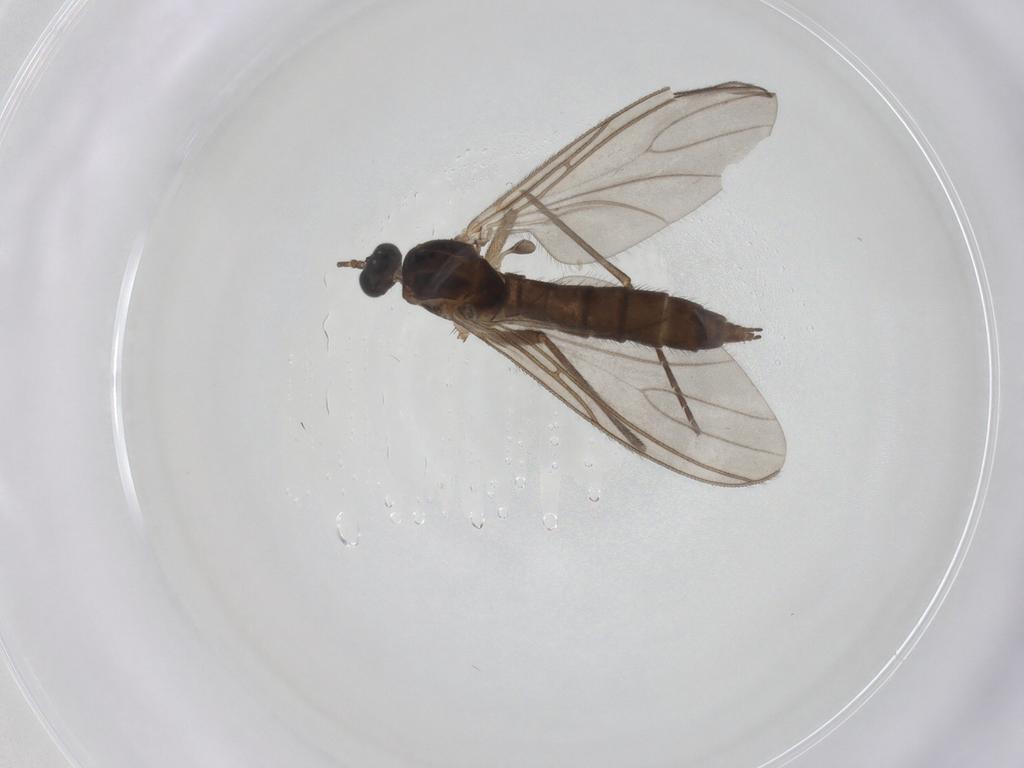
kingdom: Animalia
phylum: Arthropoda
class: Insecta
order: Diptera
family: Sciaridae
